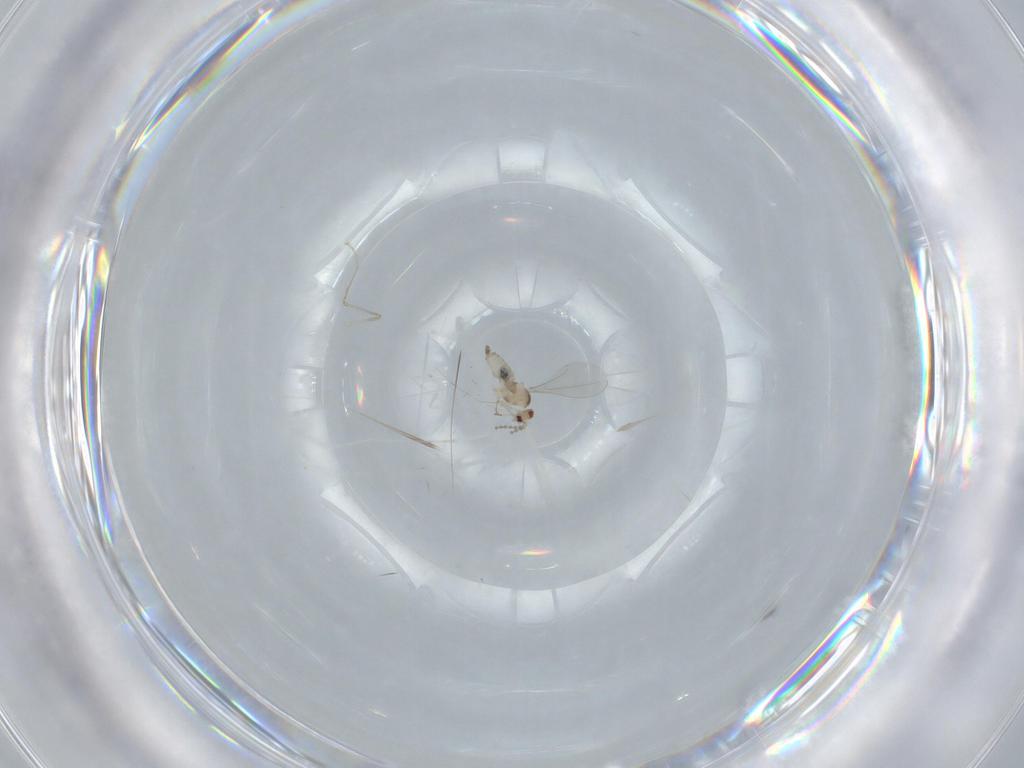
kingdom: Animalia
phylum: Arthropoda
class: Insecta
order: Diptera
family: Cecidomyiidae
